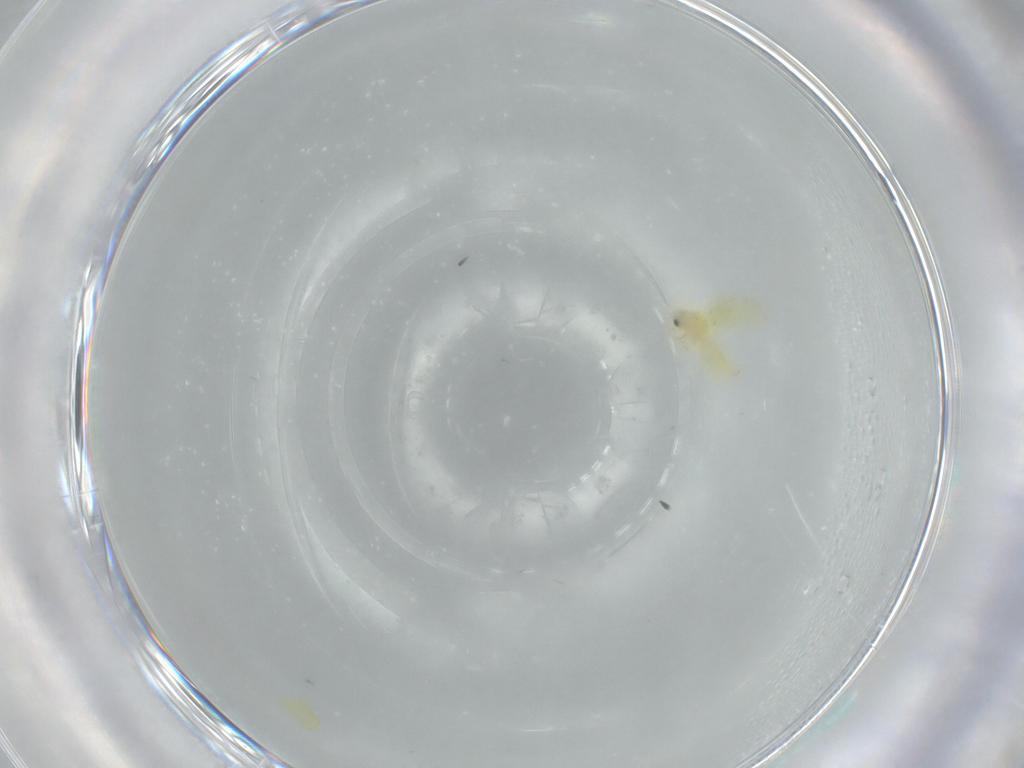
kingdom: Animalia
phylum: Arthropoda
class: Insecta
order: Hemiptera
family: Aleyrodidae
